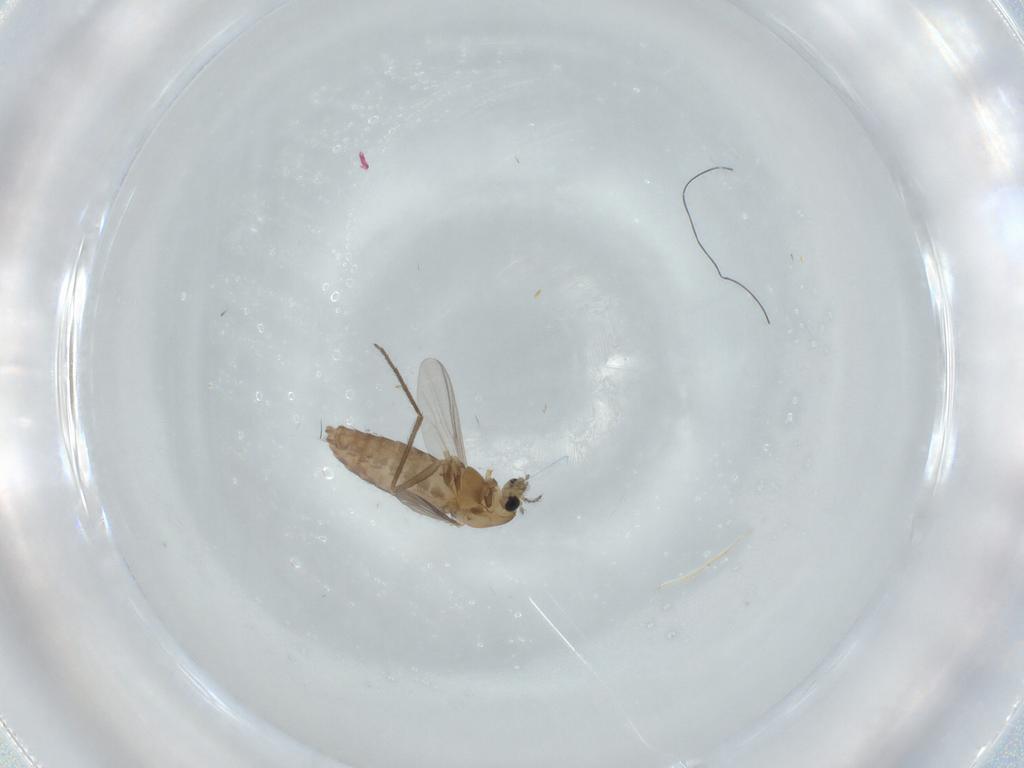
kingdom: Animalia
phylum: Arthropoda
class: Insecta
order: Diptera
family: Chironomidae
